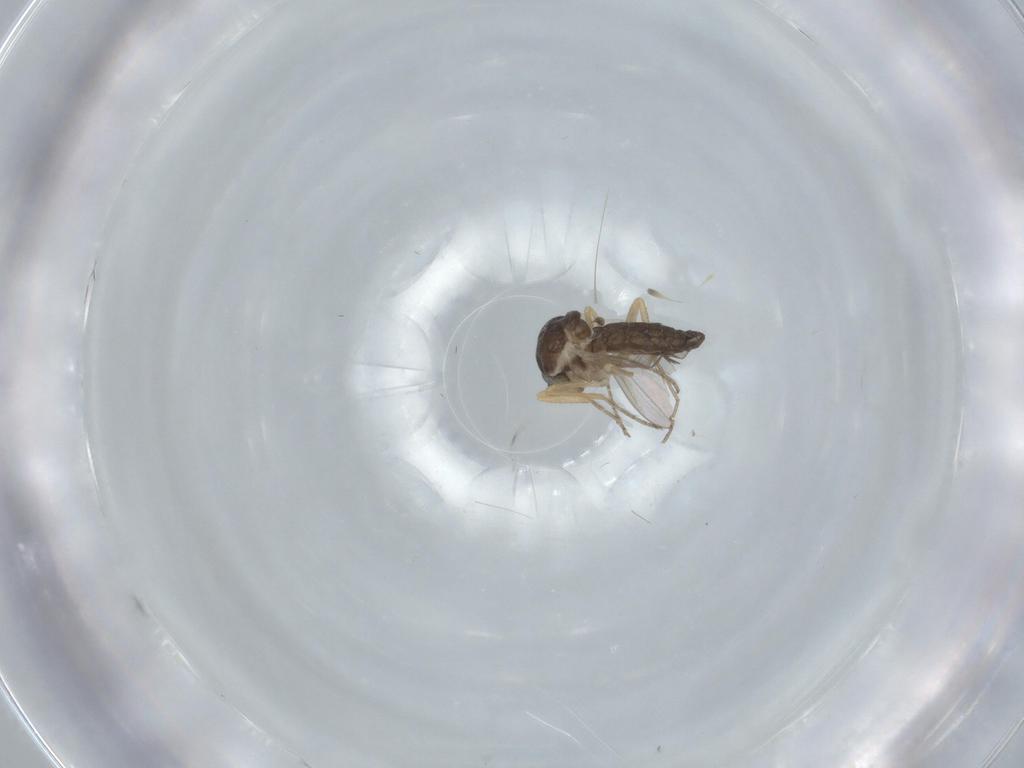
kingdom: Animalia
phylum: Arthropoda
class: Insecta
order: Diptera
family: Ceratopogonidae
